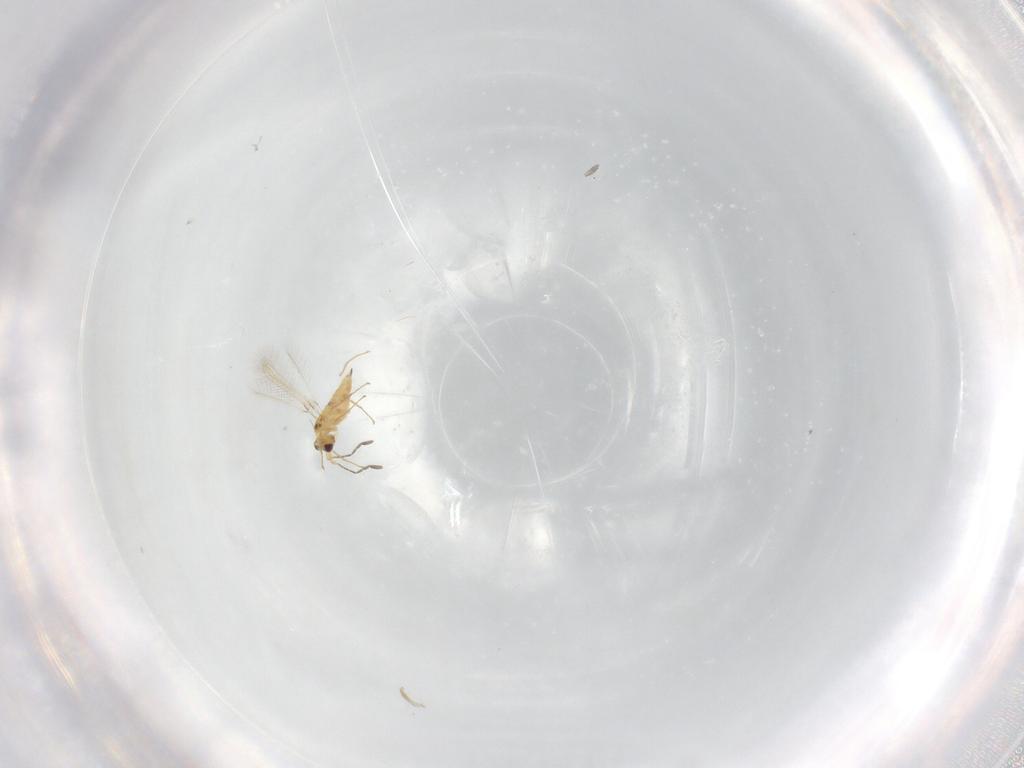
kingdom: Animalia
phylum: Arthropoda
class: Insecta
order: Hymenoptera
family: Mymaridae
